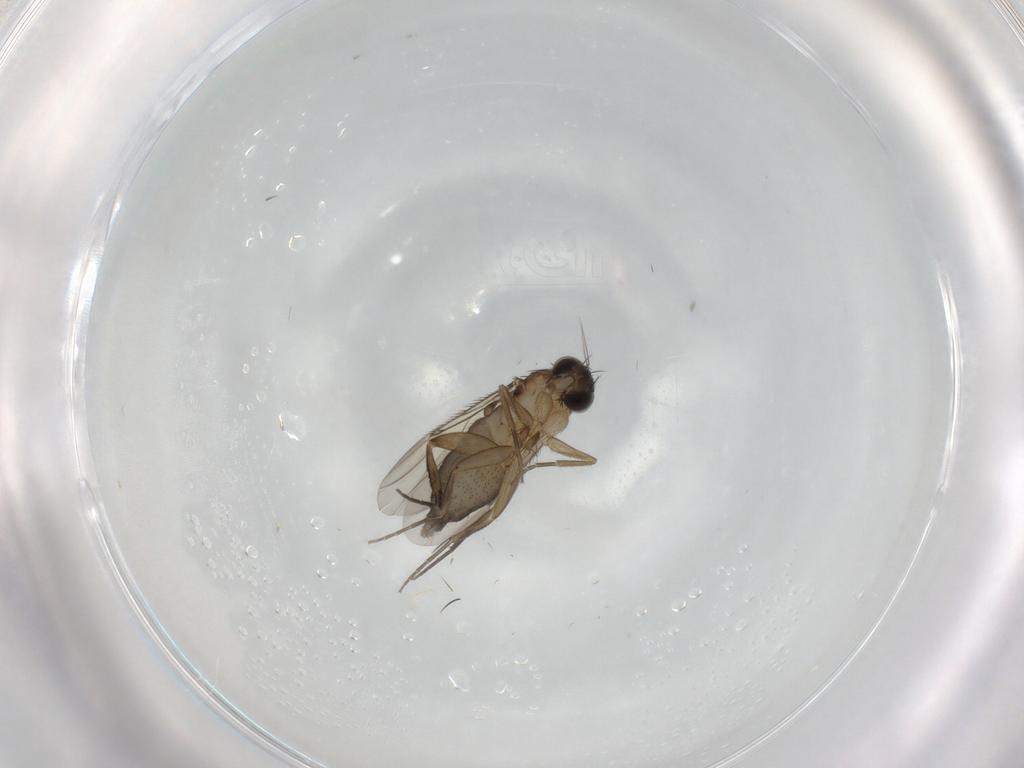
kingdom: Animalia
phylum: Arthropoda
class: Insecta
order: Diptera
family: Phoridae
